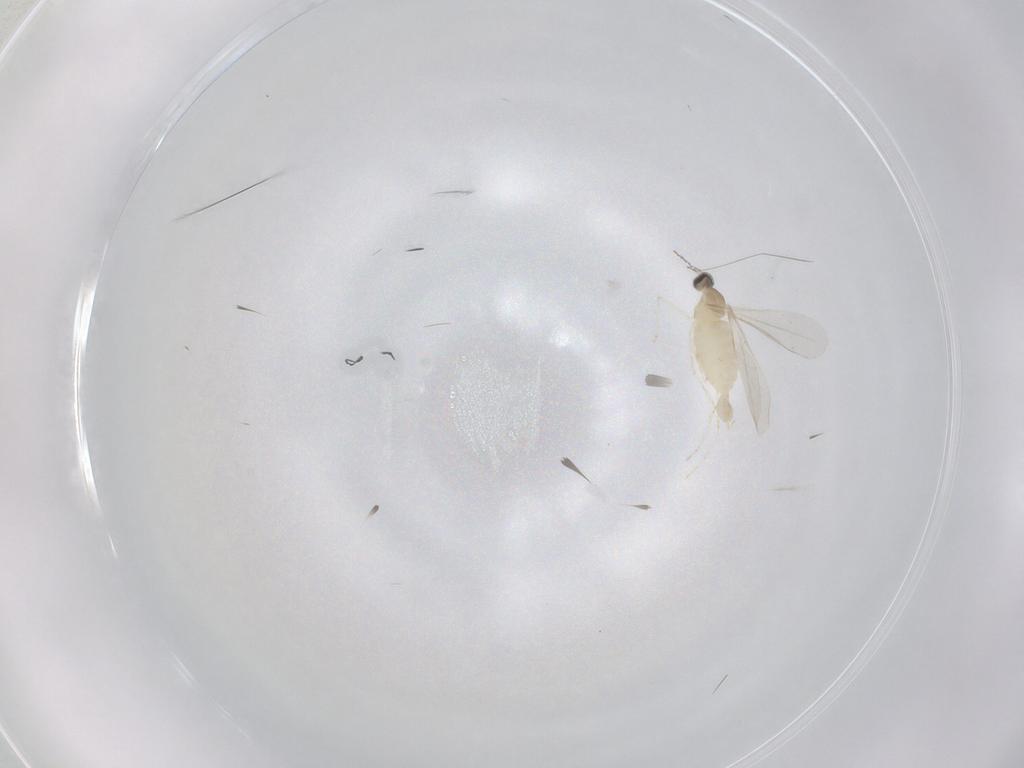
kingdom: Animalia
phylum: Arthropoda
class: Insecta
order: Diptera
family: Cecidomyiidae
